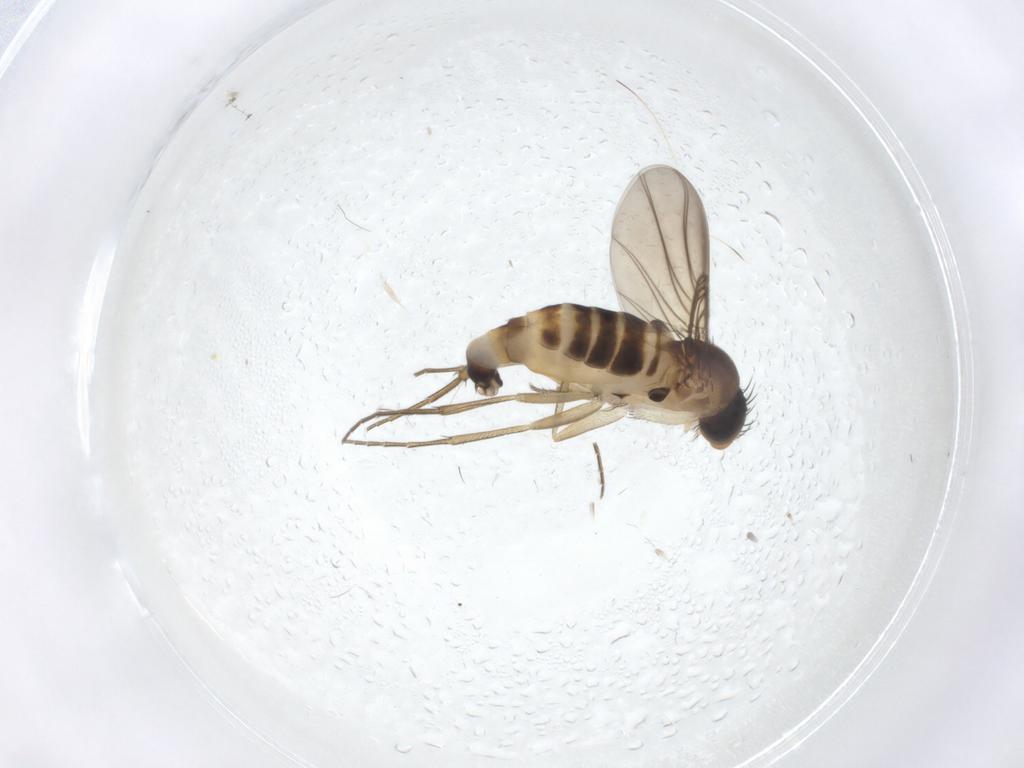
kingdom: Animalia
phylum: Arthropoda
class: Insecta
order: Diptera
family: Phoridae
